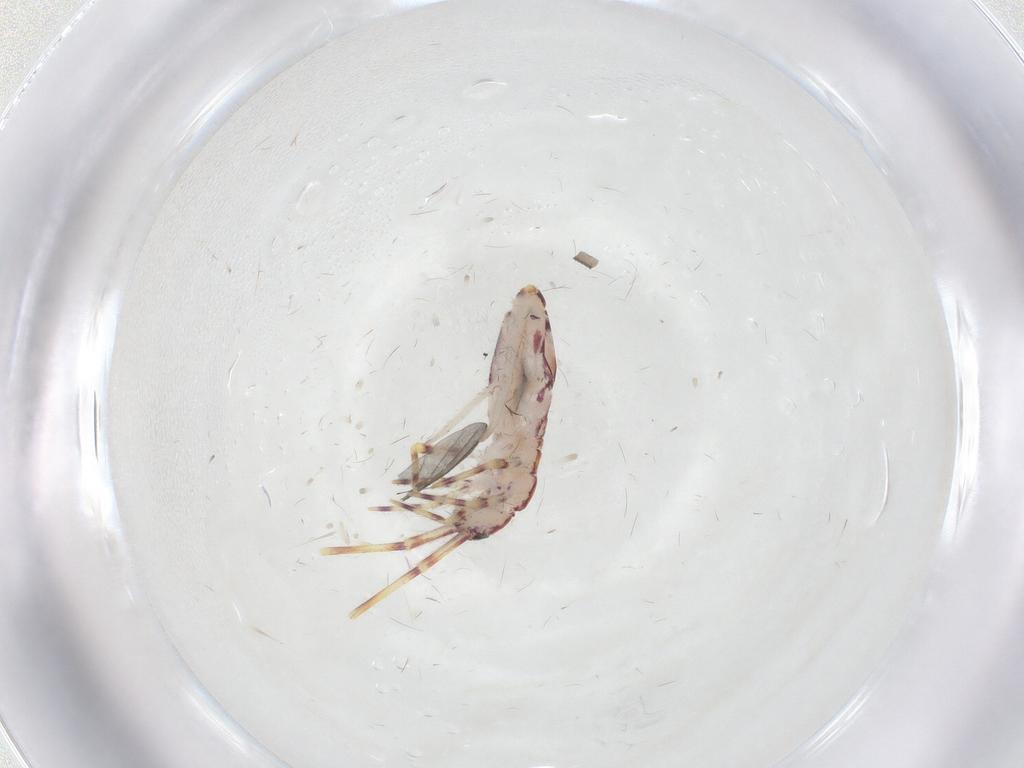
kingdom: Animalia
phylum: Arthropoda
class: Collembola
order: Entomobryomorpha
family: Entomobryidae
